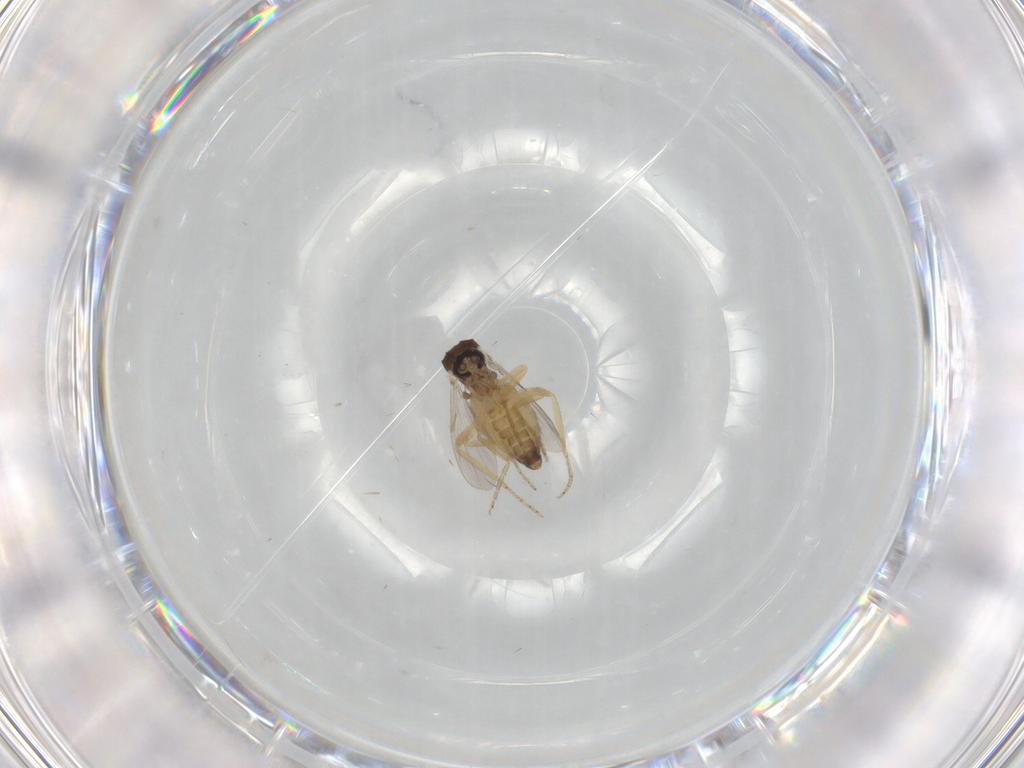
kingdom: Animalia
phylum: Arthropoda
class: Insecta
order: Diptera
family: Ceratopogonidae
